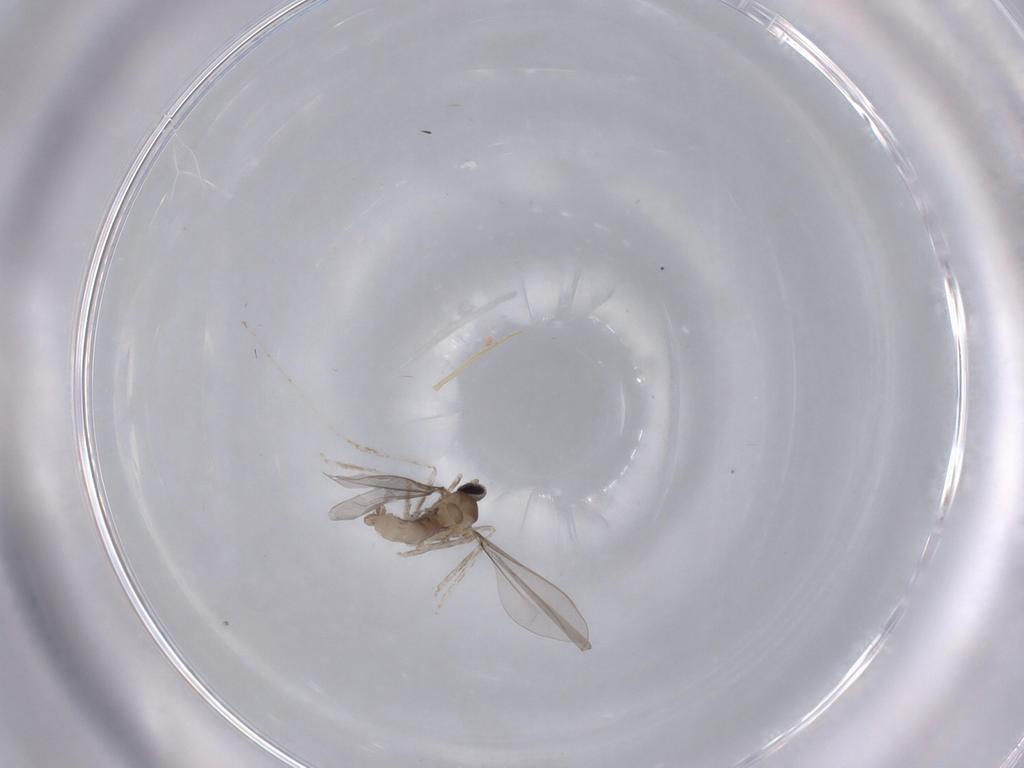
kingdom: Animalia
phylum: Arthropoda
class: Insecta
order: Diptera
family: Cecidomyiidae
